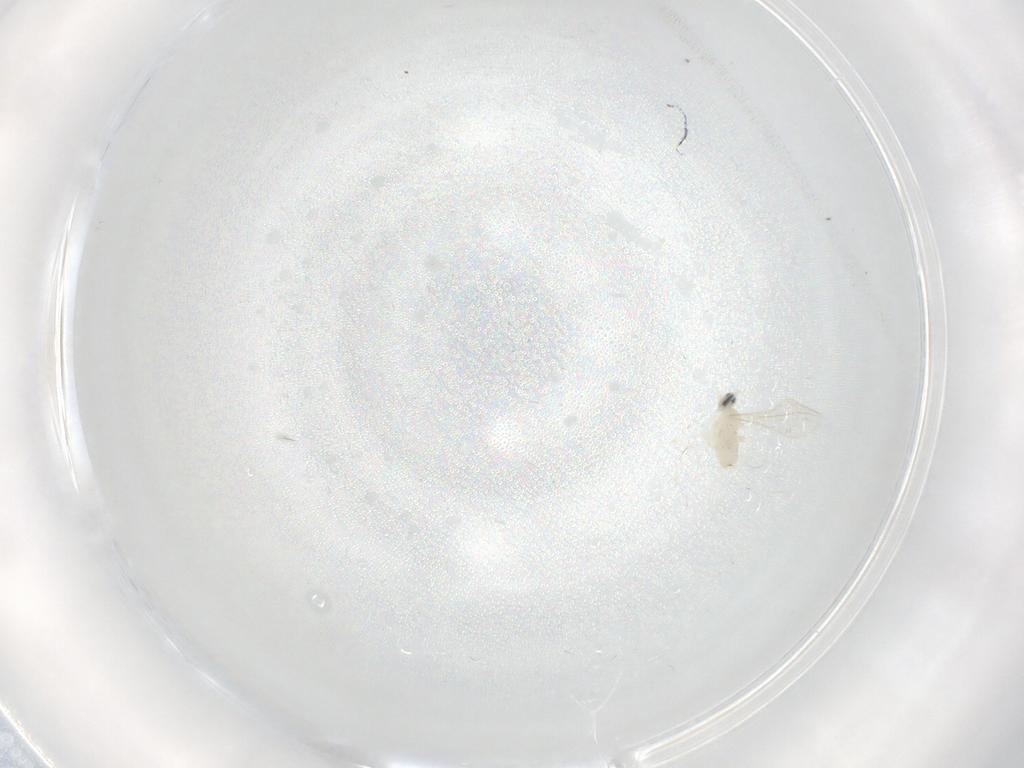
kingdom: Animalia
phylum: Arthropoda
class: Insecta
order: Diptera
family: Cecidomyiidae
